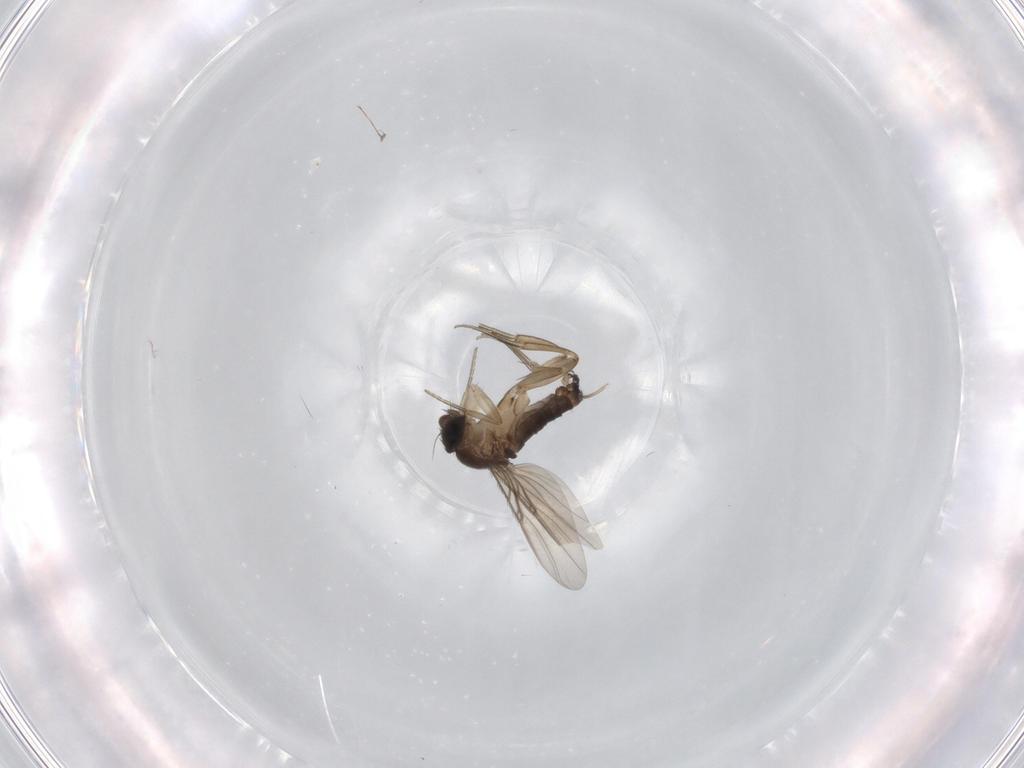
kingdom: Animalia
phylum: Arthropoda
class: Insecta
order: Diptera
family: Phoridae
